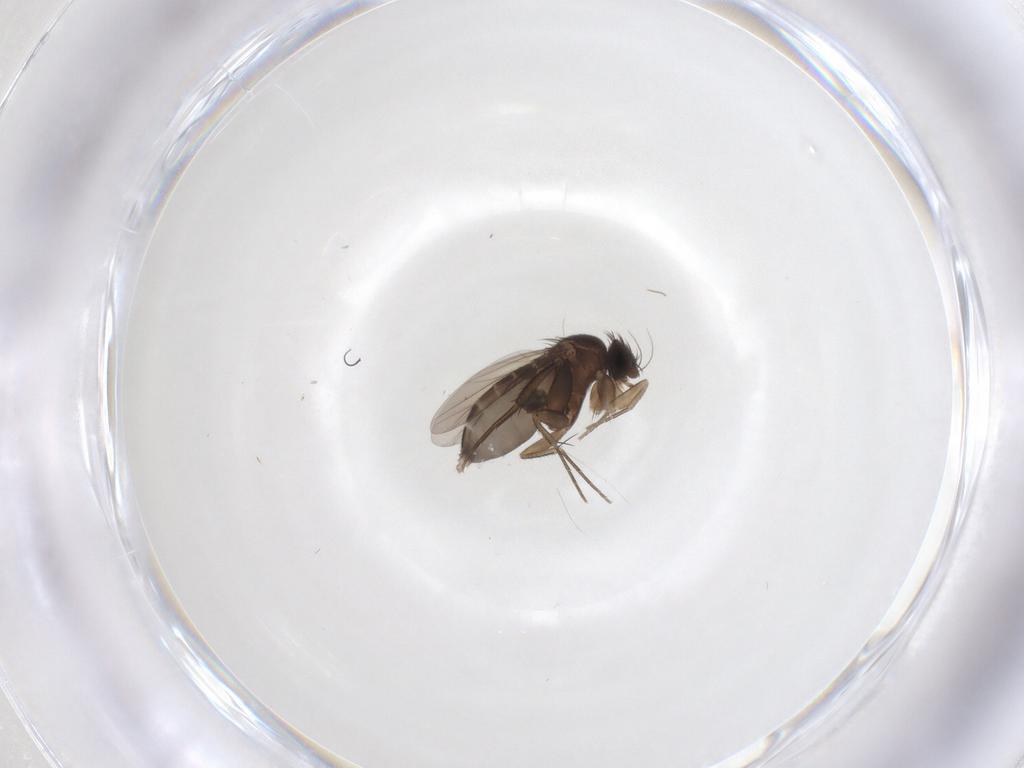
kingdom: Animalia
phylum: Arthropoda
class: Insecta
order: Diptera
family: Phoridae
